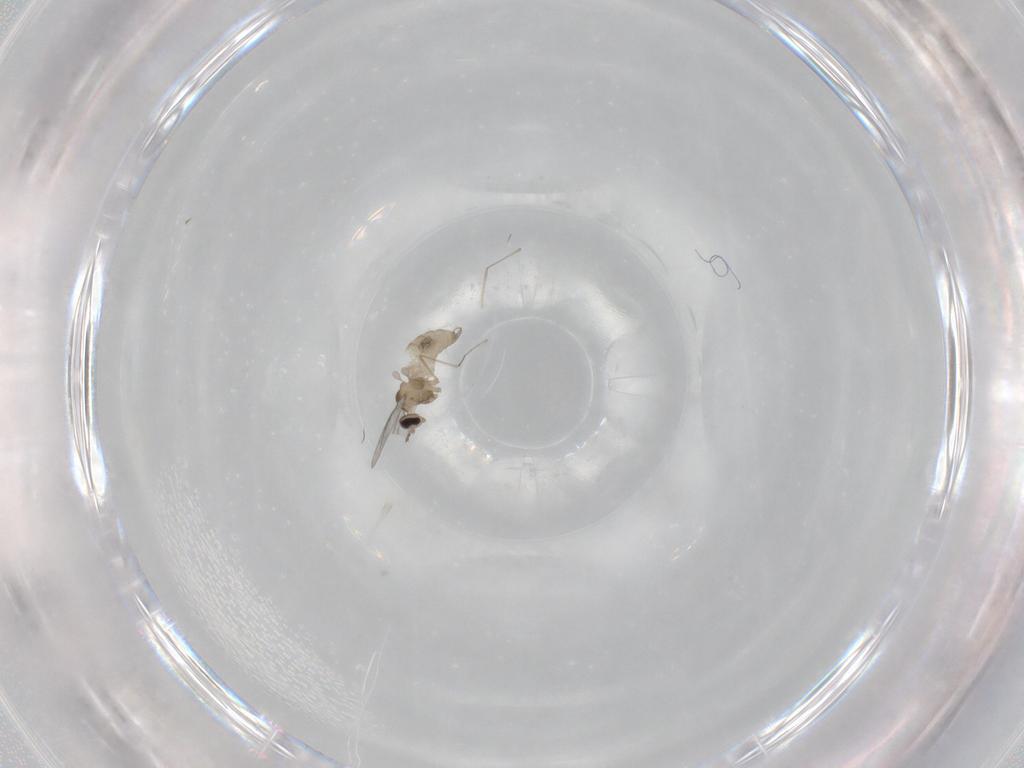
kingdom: Animalia
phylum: Arthropoda
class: Insecta
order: Diptera
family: Cecidomyiidae
